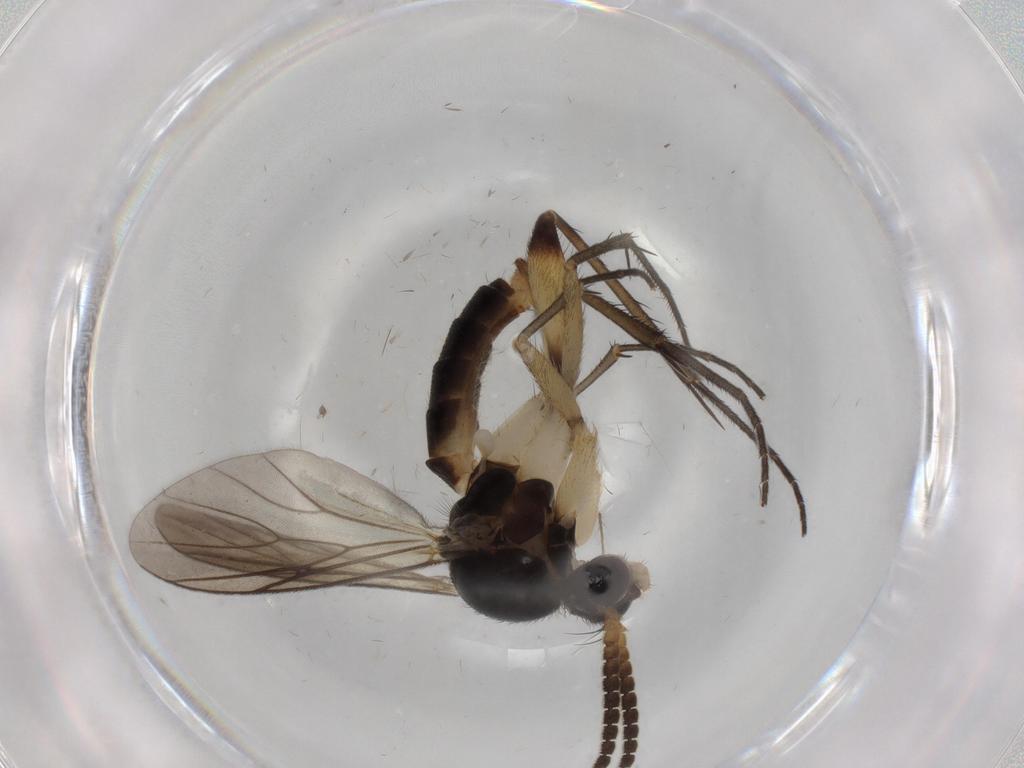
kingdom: Animalia
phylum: Arthropoda
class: Insecta
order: Diptera
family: Mycetophilidae
